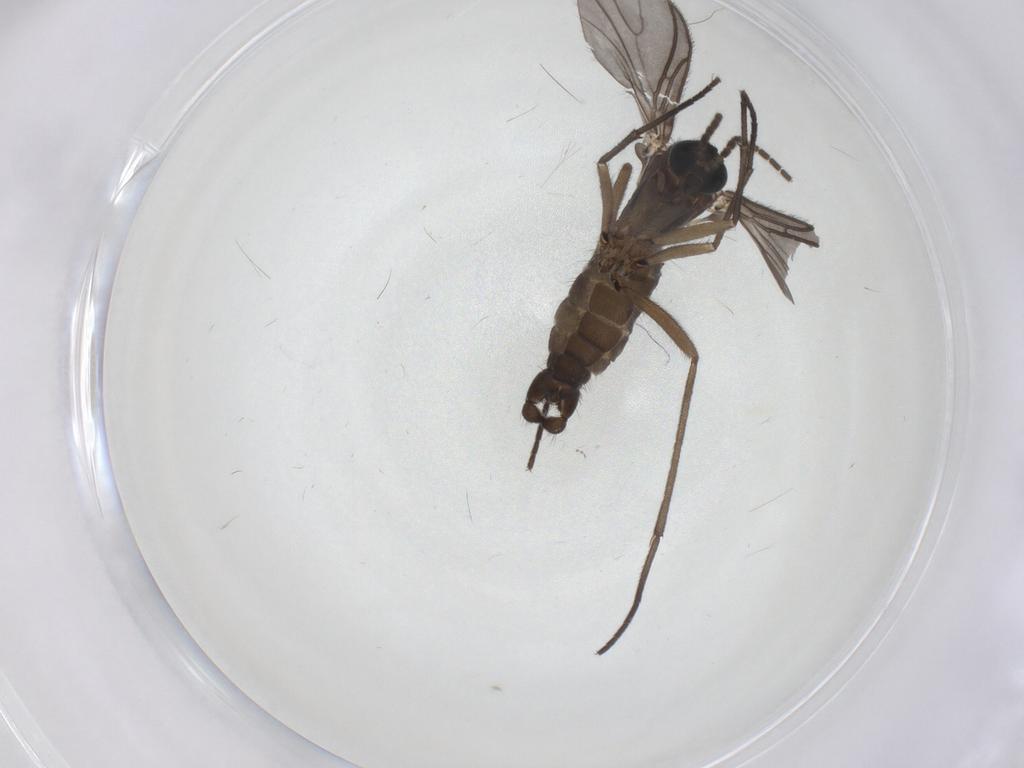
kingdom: Animalia
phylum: Arthropoda
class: Insecta
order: Diptera
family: Sciaridae
